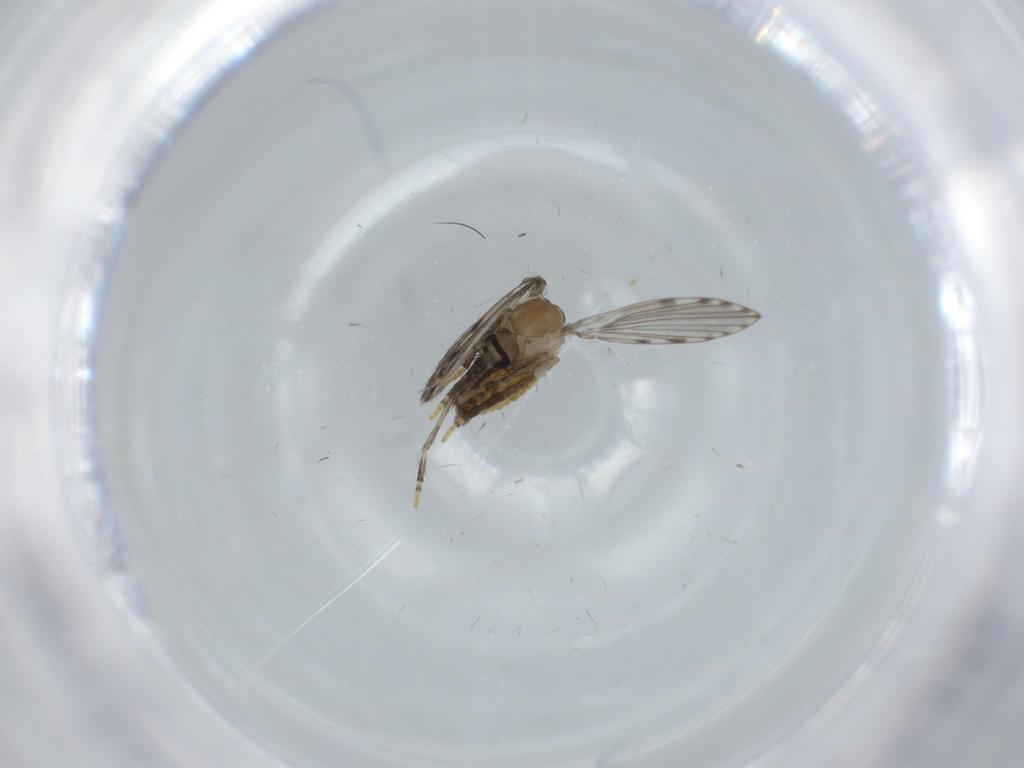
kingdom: Animalia
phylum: Arthropoda
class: Insecta
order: Diptera
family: Psychodidae
